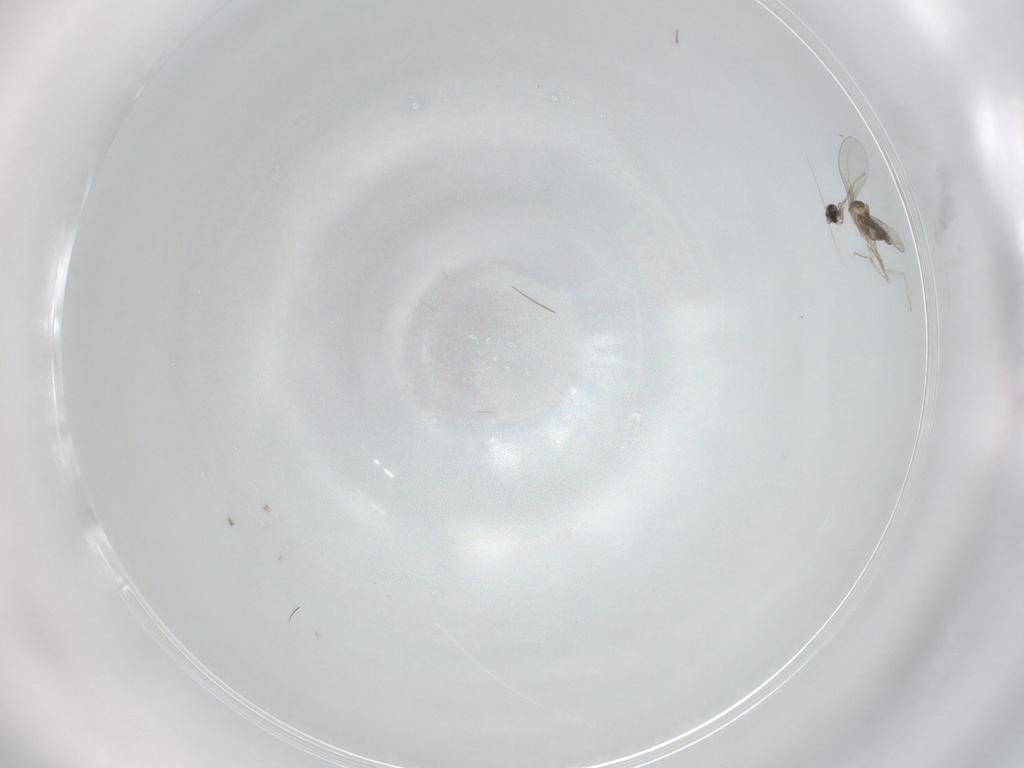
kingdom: Animalia
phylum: Arthropoda
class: Insecta
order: Diptera
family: Cecidomyiidae
